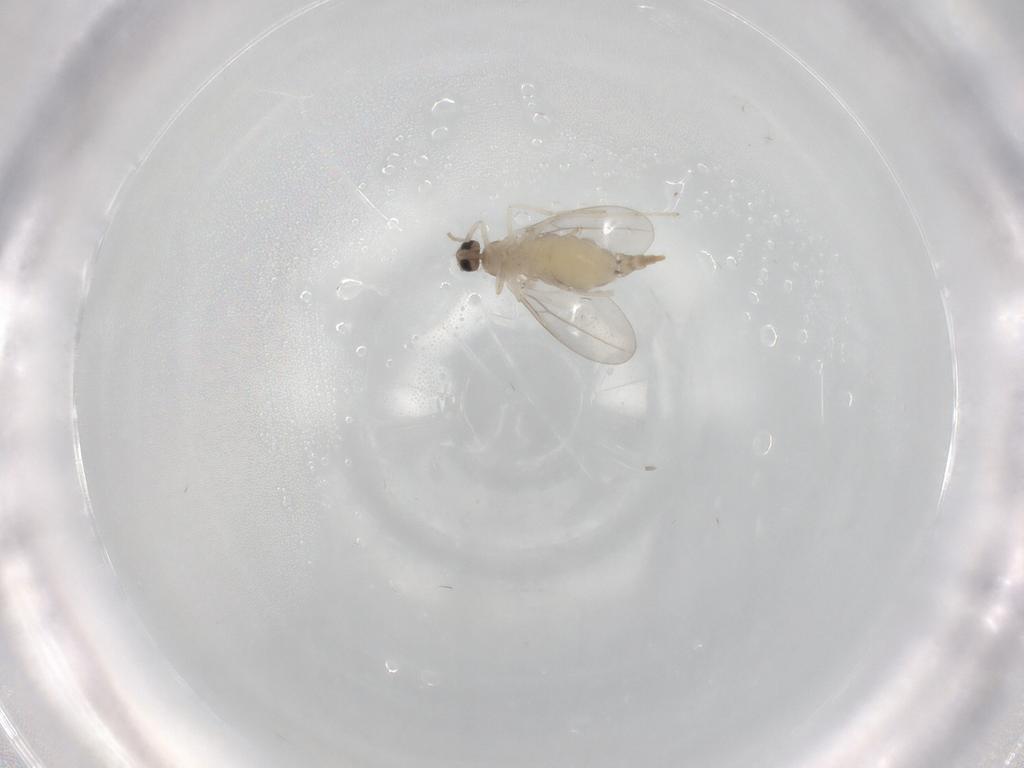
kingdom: Animalia
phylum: Arthropoda
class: Insecta
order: Diptera
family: Cecidomyiidae
